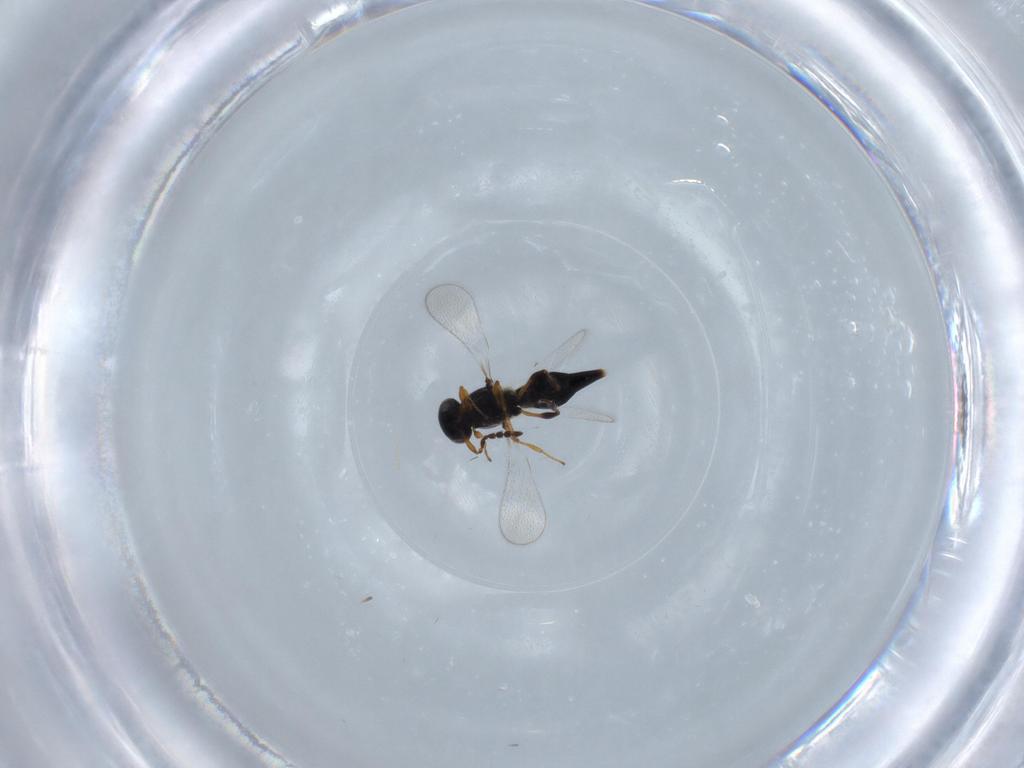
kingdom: Animalia
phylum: Arthropoda
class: Insecta
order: Hymenoptera
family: Platygastridae
